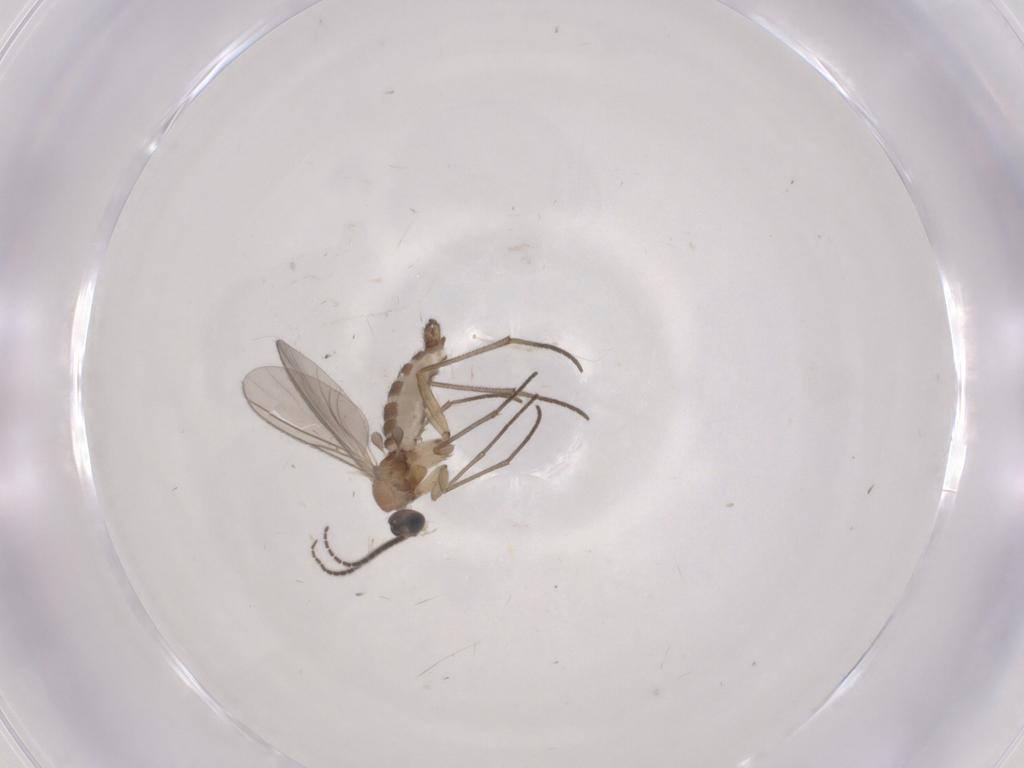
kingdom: Animalia
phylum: Arthropoda
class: Insecta
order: Diptera
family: Sciaridae
